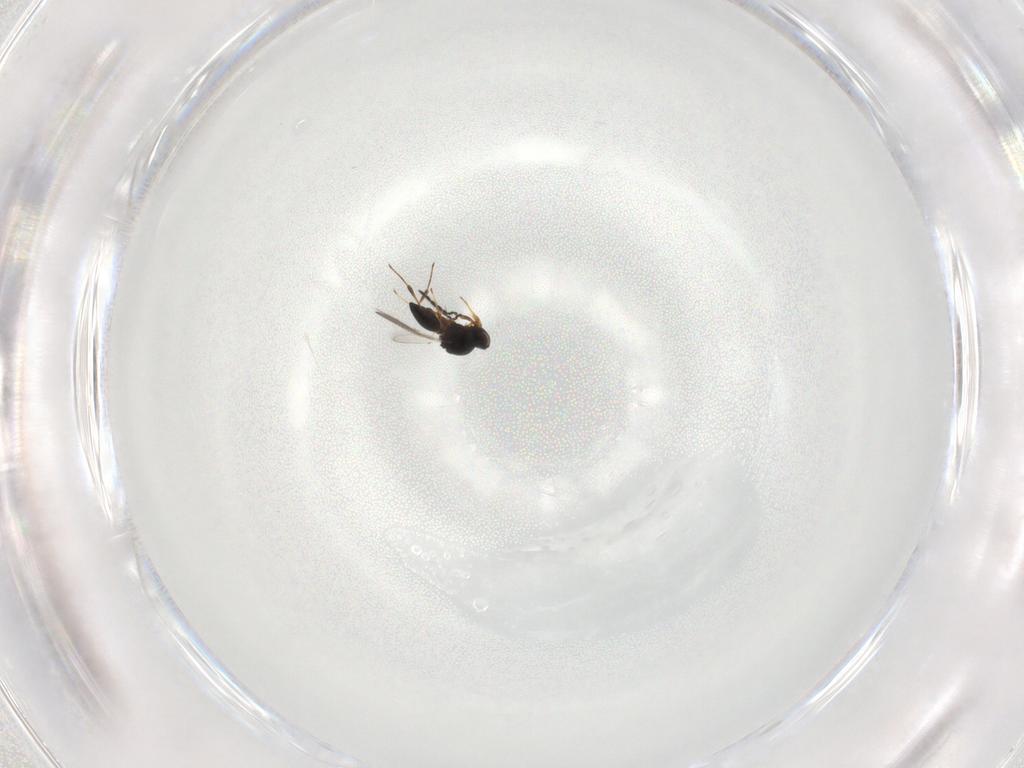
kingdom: Animalia
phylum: Arthropoda
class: Insecta
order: Hymenoptera
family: Platygastridae
